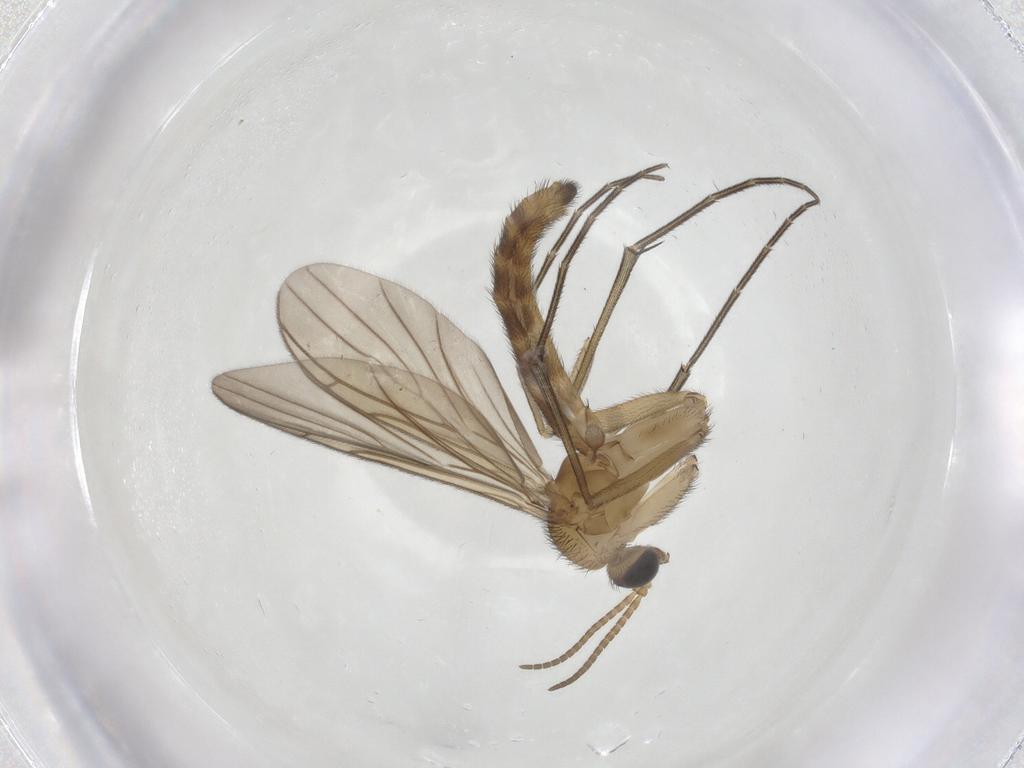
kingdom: Animalia
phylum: Arthropoda
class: Insecta
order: Diptera
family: Keroplatidae
